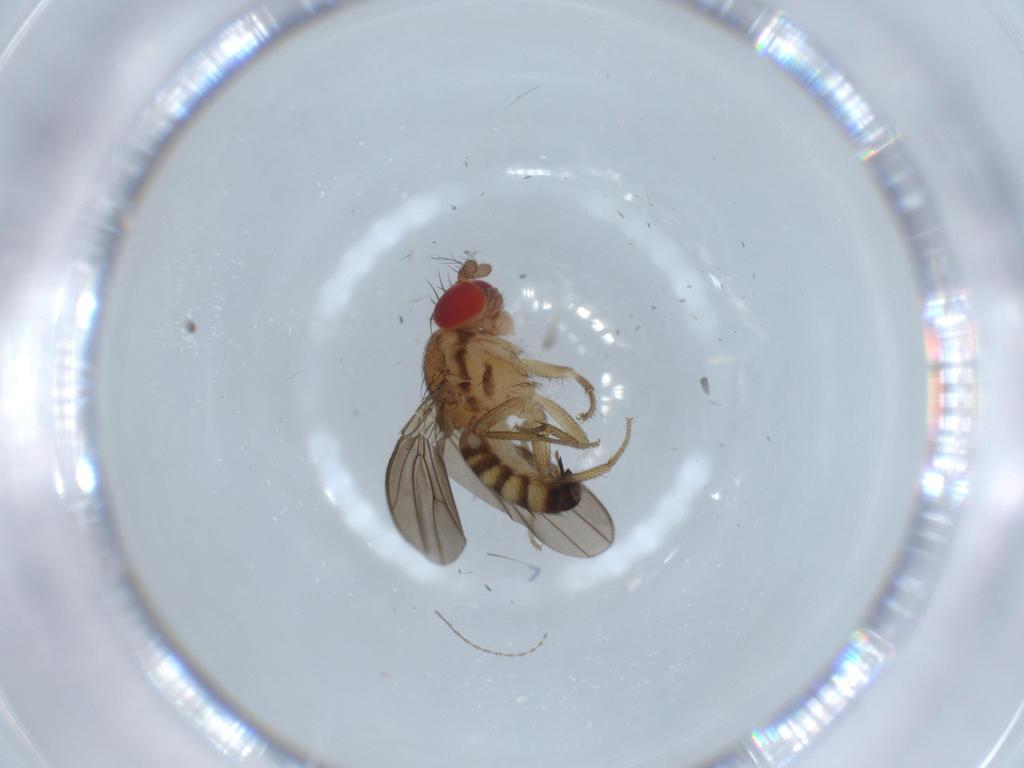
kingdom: Animalia
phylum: Arthropoda
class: Insecta
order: Diptera
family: Drosophilidae
